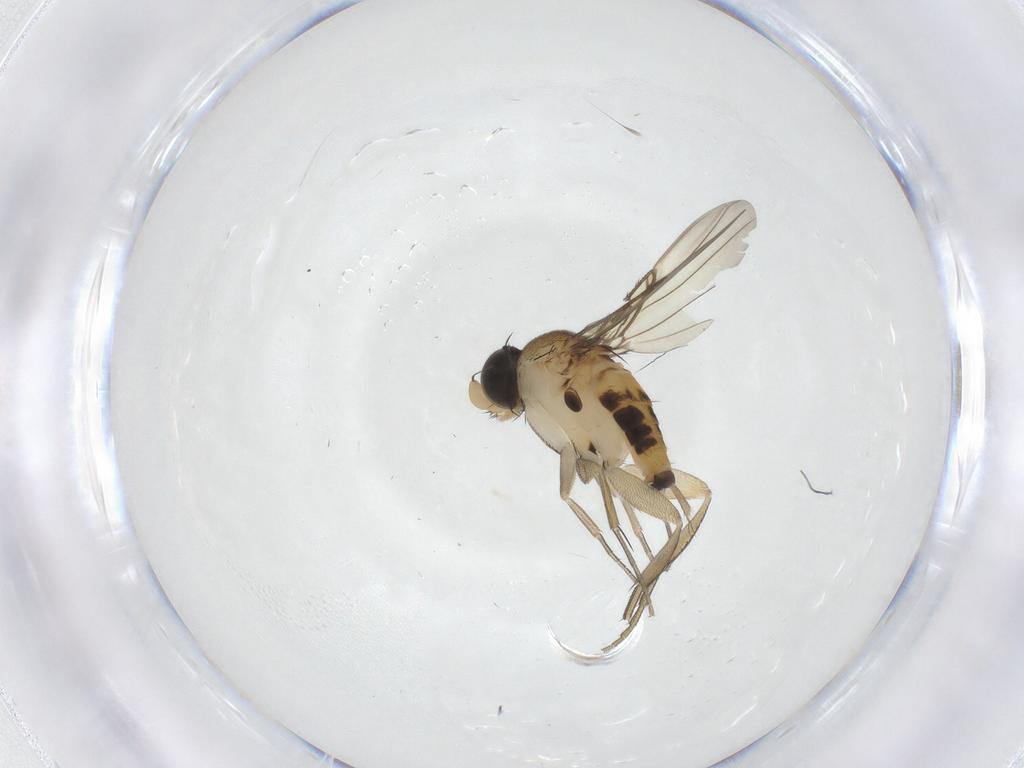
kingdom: Animalia
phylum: Arthropoda
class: Insecta
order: Diptera
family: Phoridae
